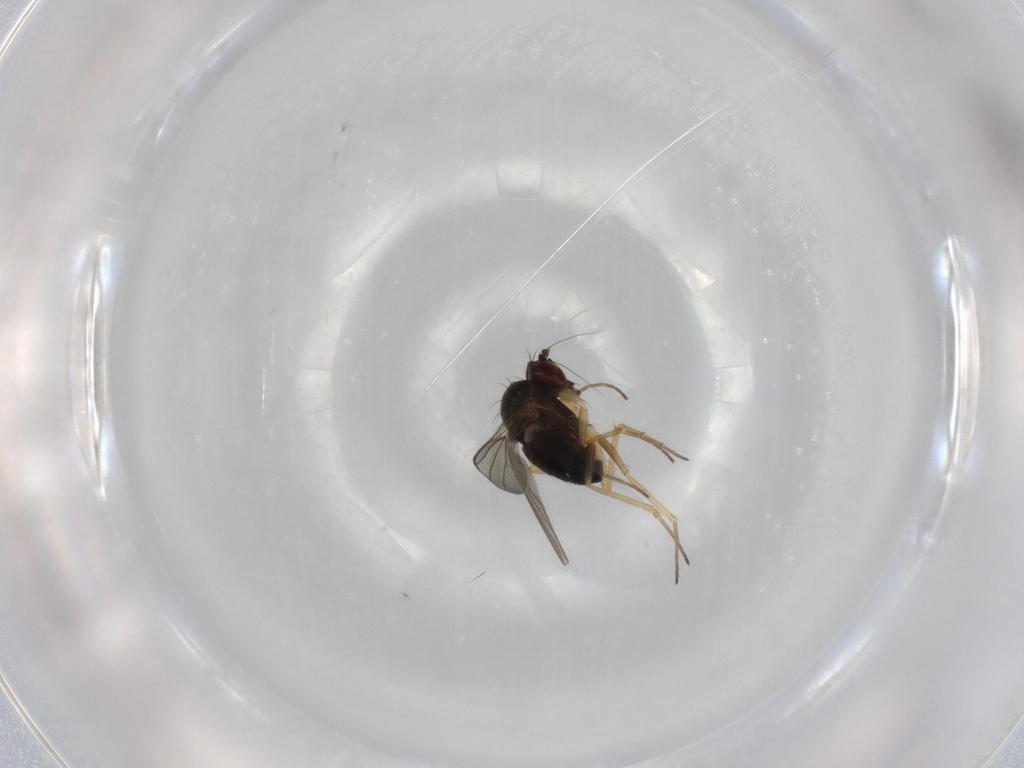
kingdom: Animalia
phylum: Arthropoda
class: Insecta
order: Diptera
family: Dolichopodidae
